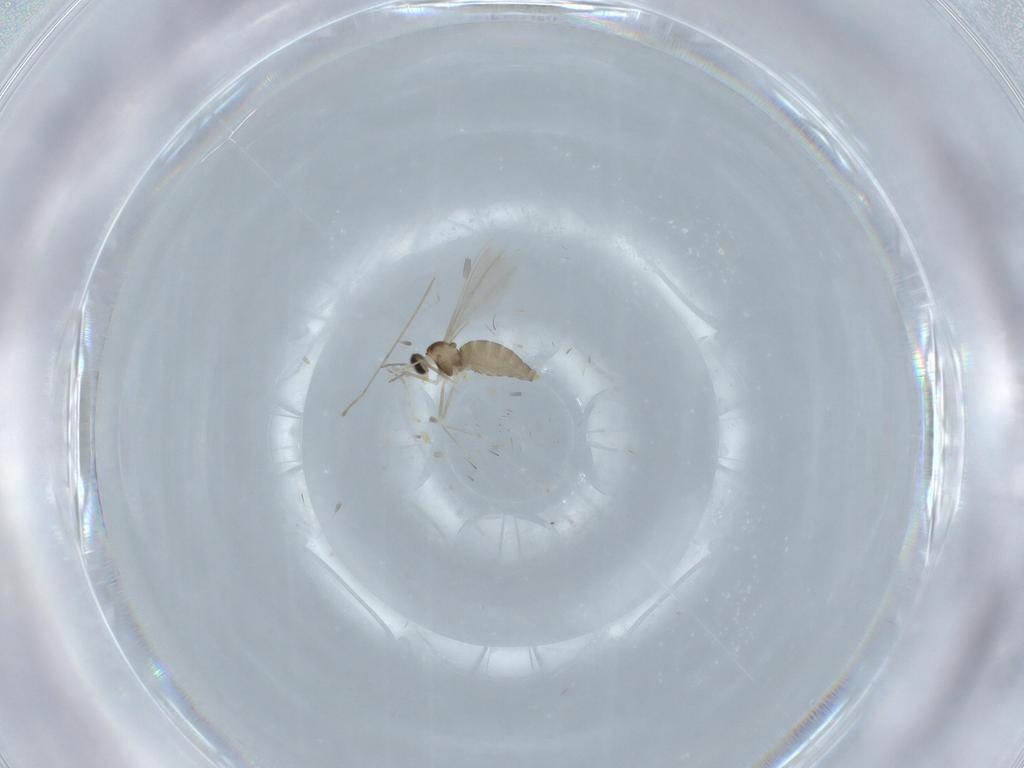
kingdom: Animalia
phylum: Arthropoda
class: Insecta
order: Diptera
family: Cecidomyiidae
